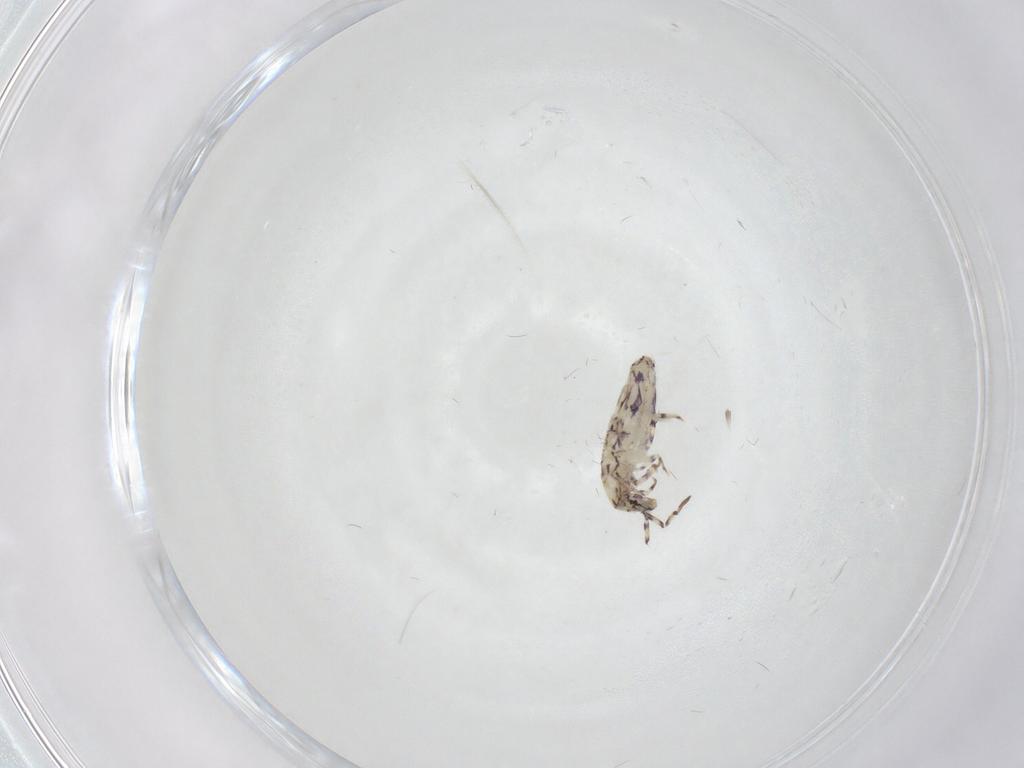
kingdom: Animalia
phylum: Arthropoda
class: Collembola
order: Entomobryomorpha
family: Entomobryidae
